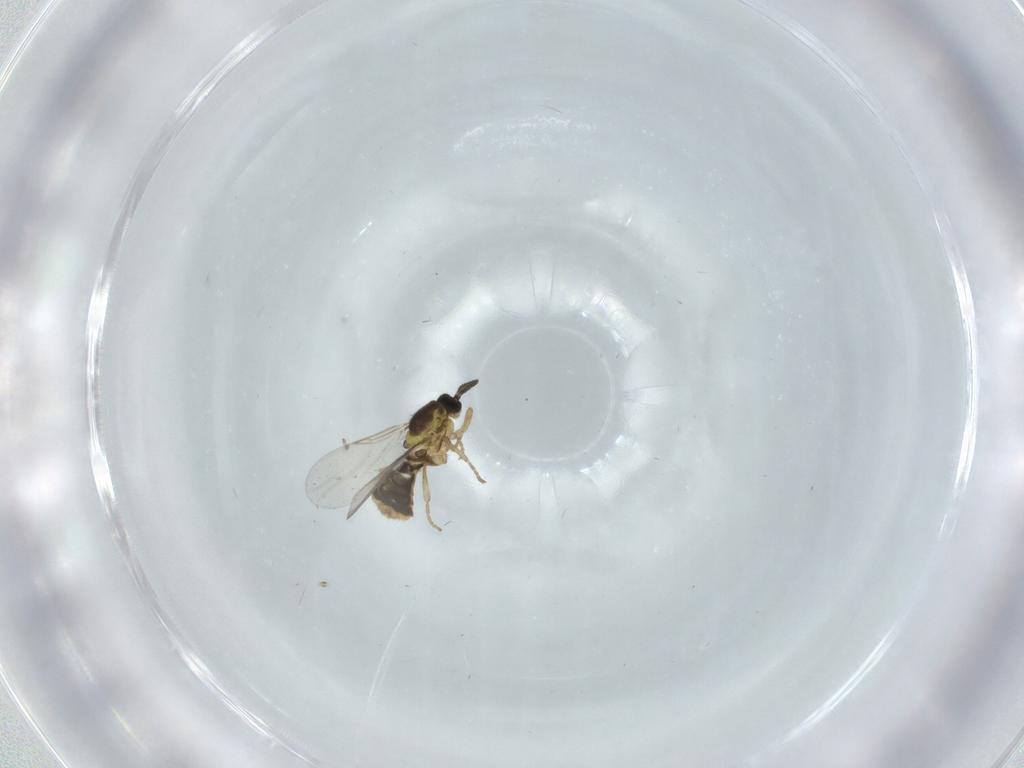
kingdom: Animalia
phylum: Arthropoda
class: Insecta
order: Diptera
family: Scatopsidae
